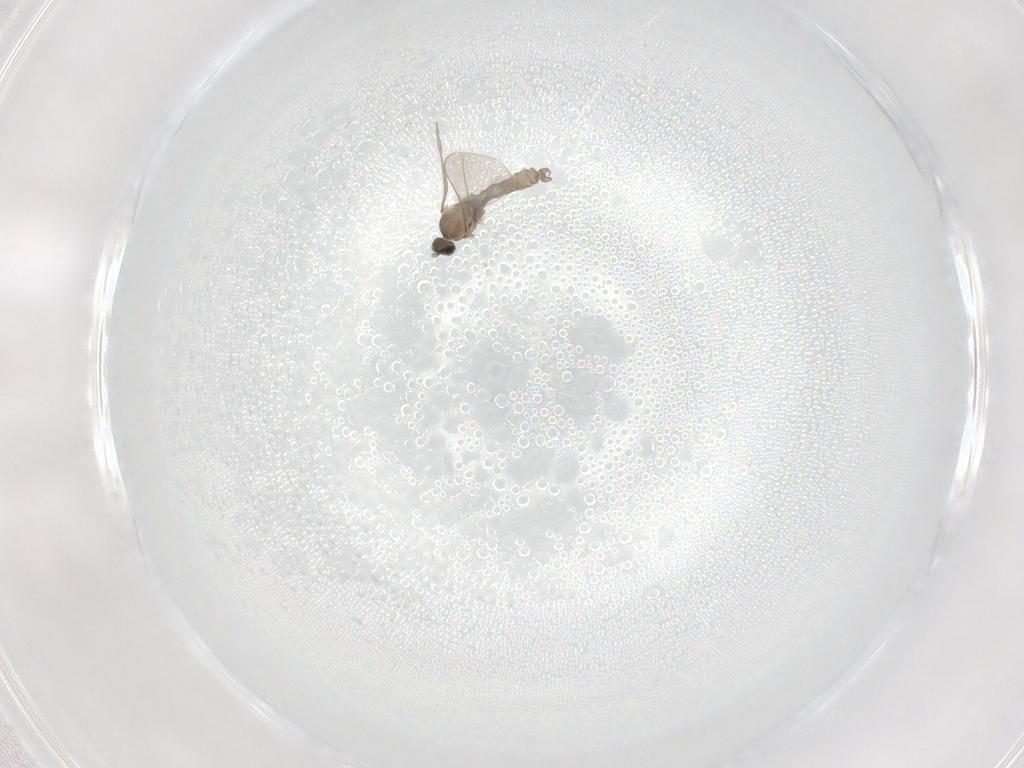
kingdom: Animalia
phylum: Arthropoda
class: Insecta
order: Diptera
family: Cecidomyiidae
